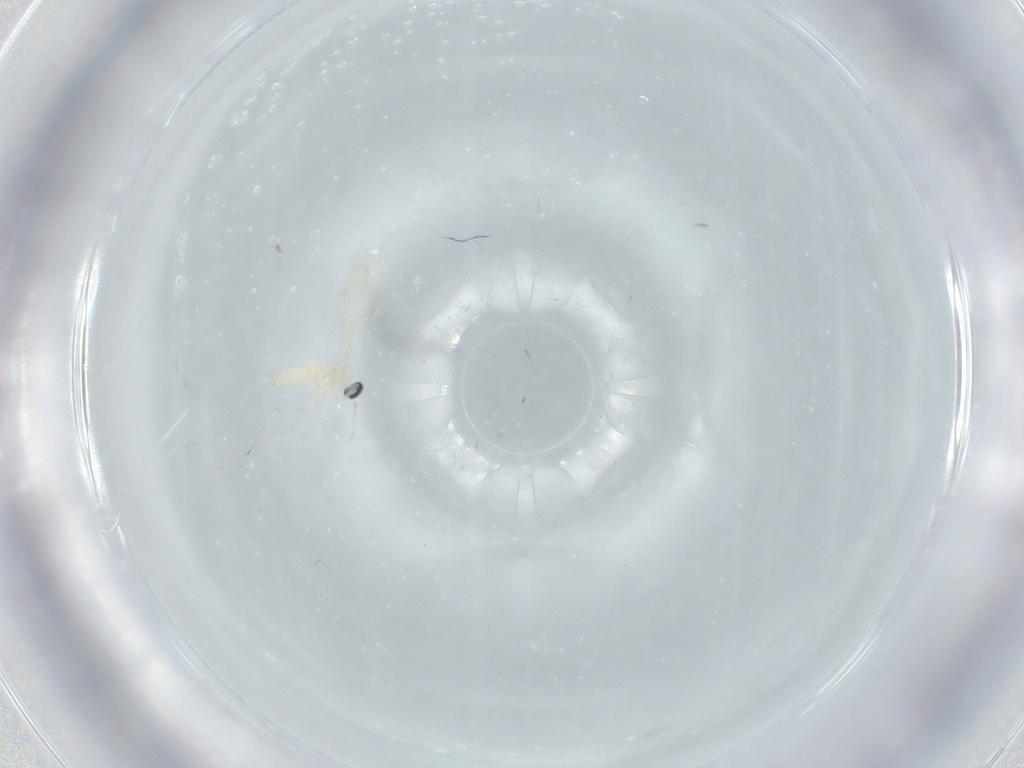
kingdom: Animalia
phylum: Arthropoda
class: Insecta
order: Diptera
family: Cecidomyiidae
